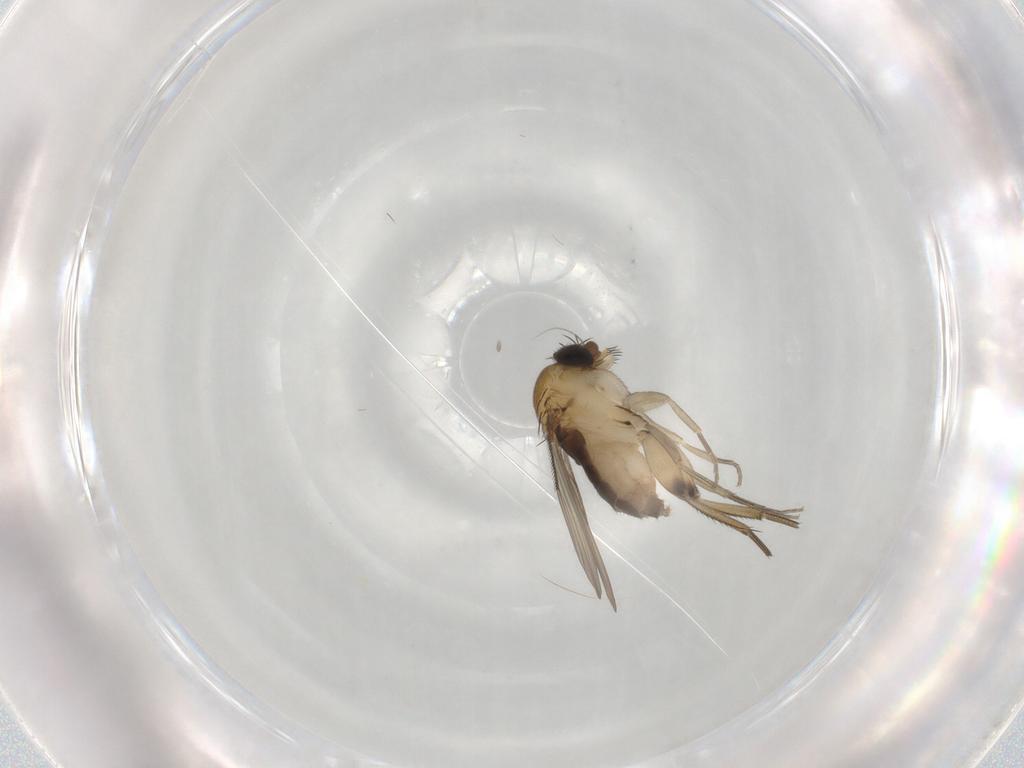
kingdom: Animalia
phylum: Arthropoda
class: Insecta
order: Diptera
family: Phoridae
